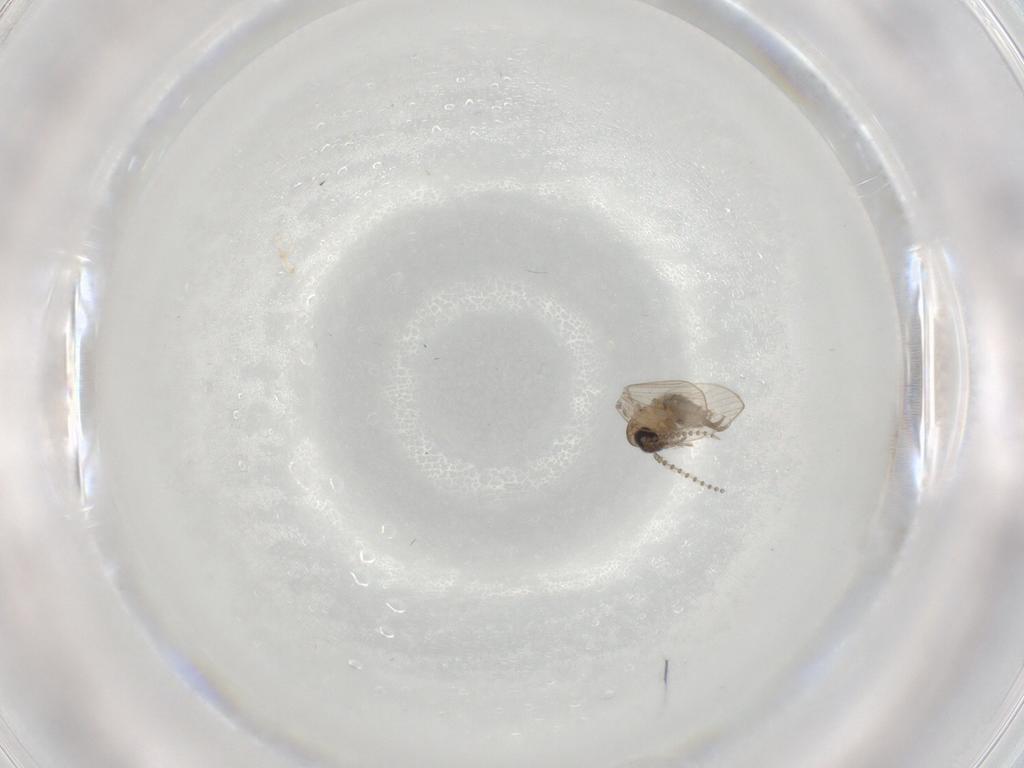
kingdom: Animalia
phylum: Arthropoda
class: Insecta
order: Diptera
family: Psychodidae
